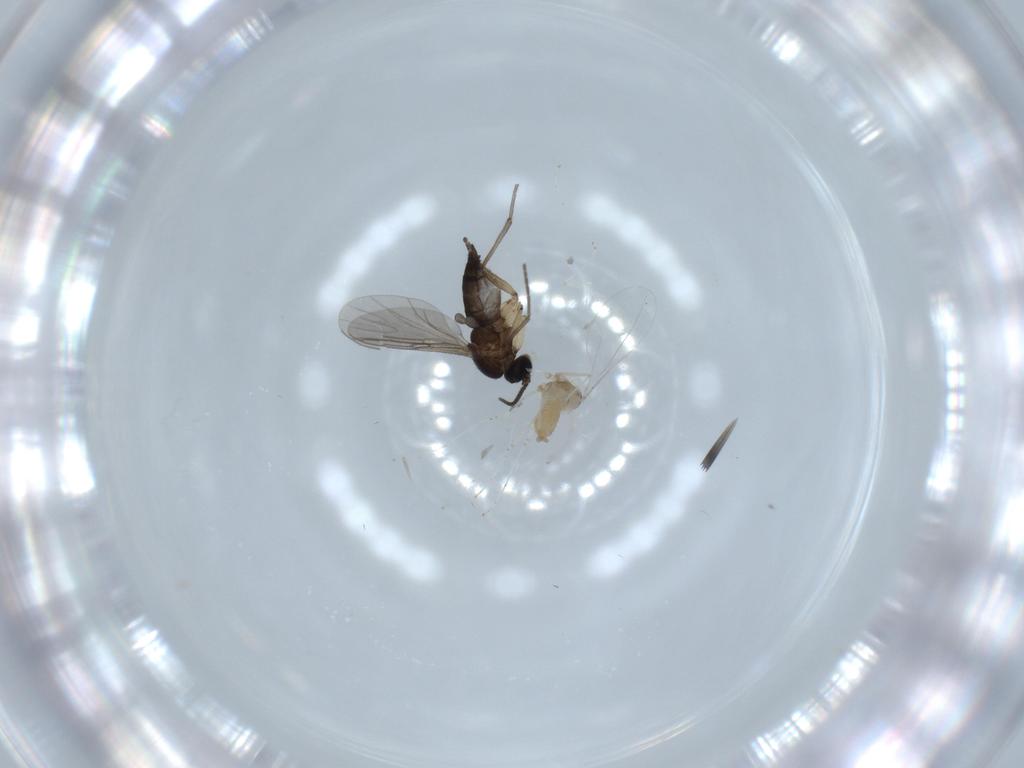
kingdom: Animalia
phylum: Arthropoda
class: Insecta
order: Diptera
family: Sciaridae
